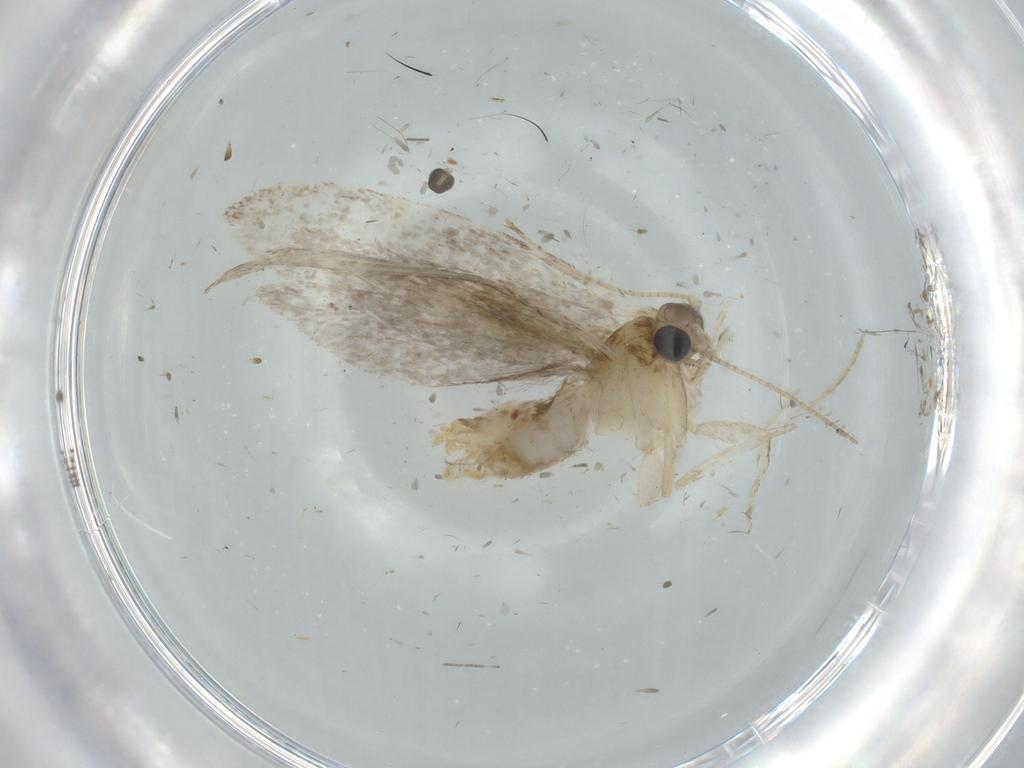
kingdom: Animalia
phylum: Arthropoda
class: Insecta
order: Lepidoptera
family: Tineidae
